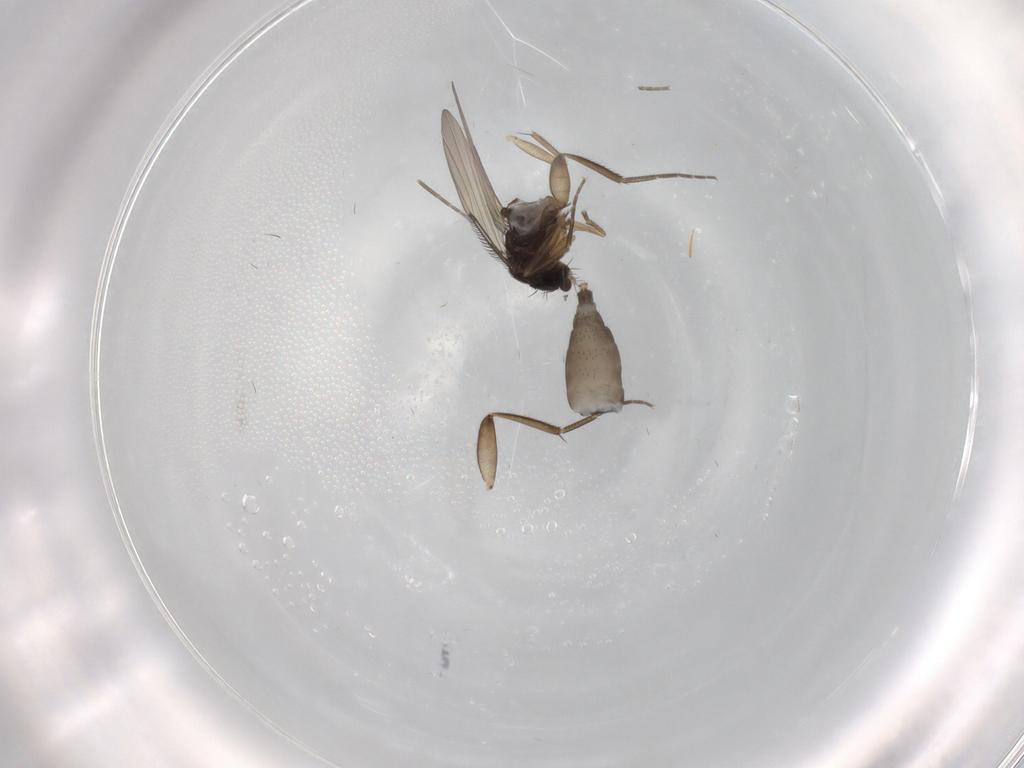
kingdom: Animalia
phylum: Arthropoda
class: Insecta
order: Diptera
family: Phoridae
